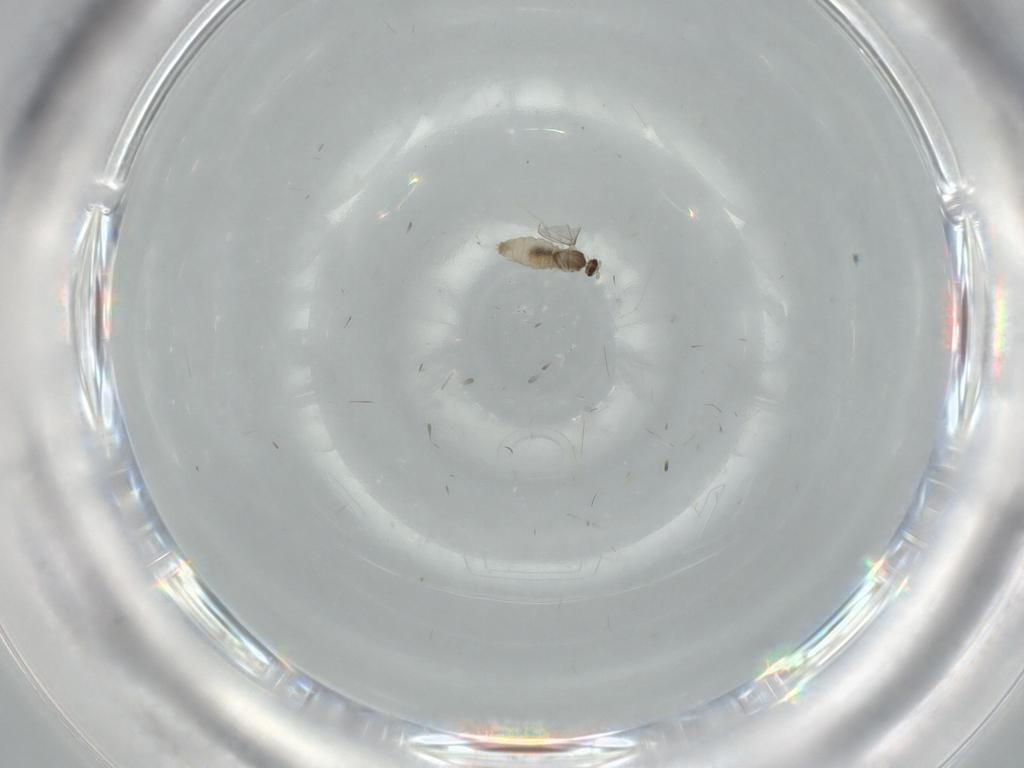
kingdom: Animalia
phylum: Arthropoda
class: Insecta
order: Diptera
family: Cecidomyiidae
